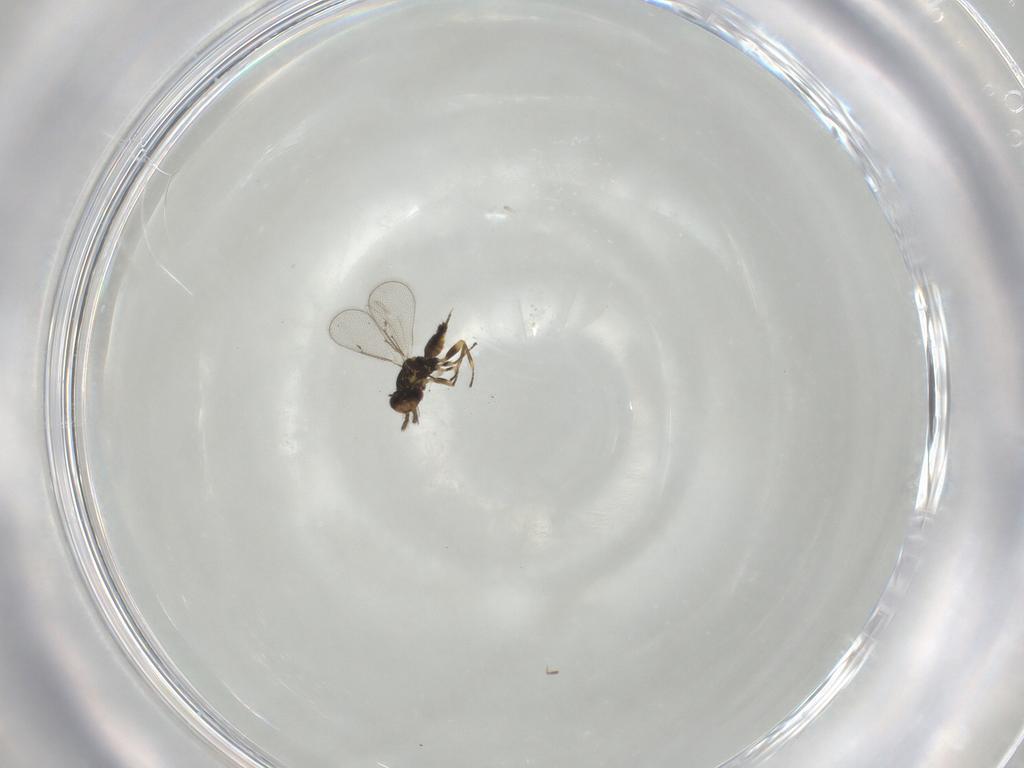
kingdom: Animalia
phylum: Arthropoda
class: Insecta
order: Hymenoptera
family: Eulophidae
